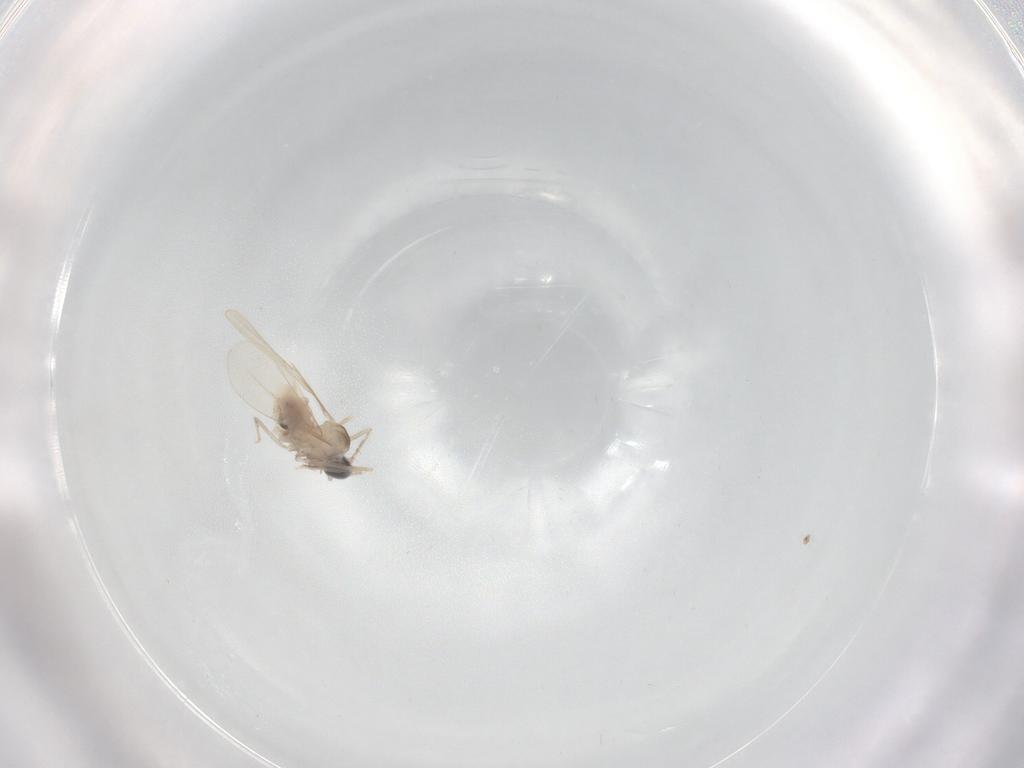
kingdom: Animalia
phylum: Arthropoda
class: Insecta
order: Diptera
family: Cecidomyiidae
